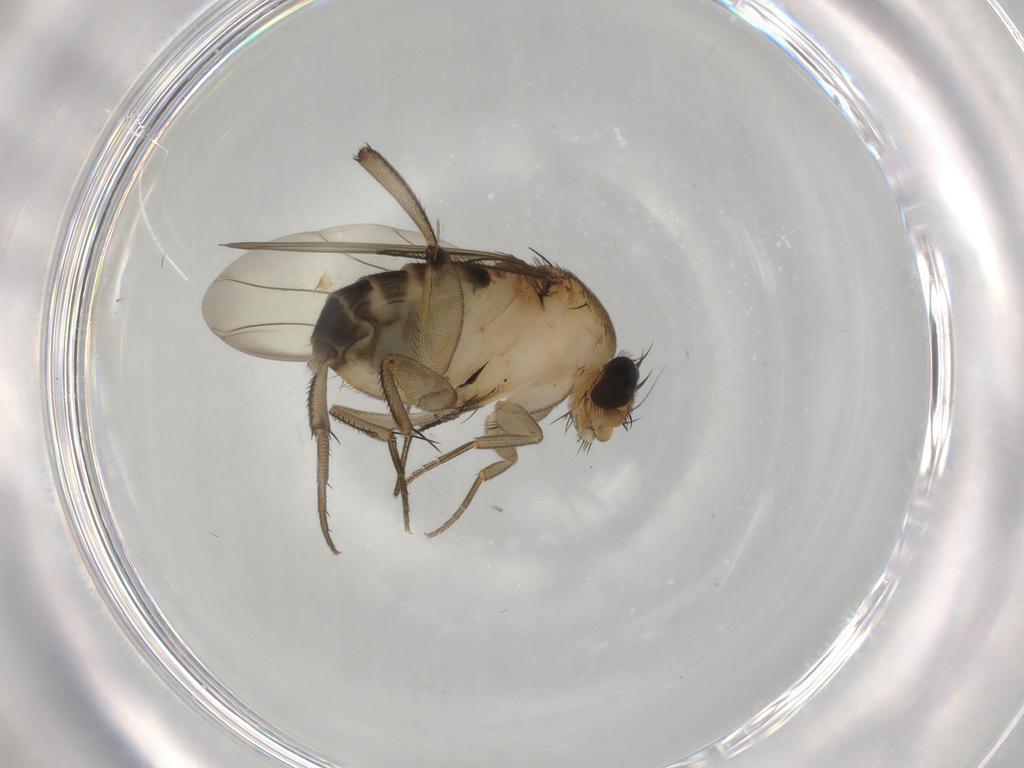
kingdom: Animalia
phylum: Arthropoda
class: Insecta
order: Diptera
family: Phoridae
